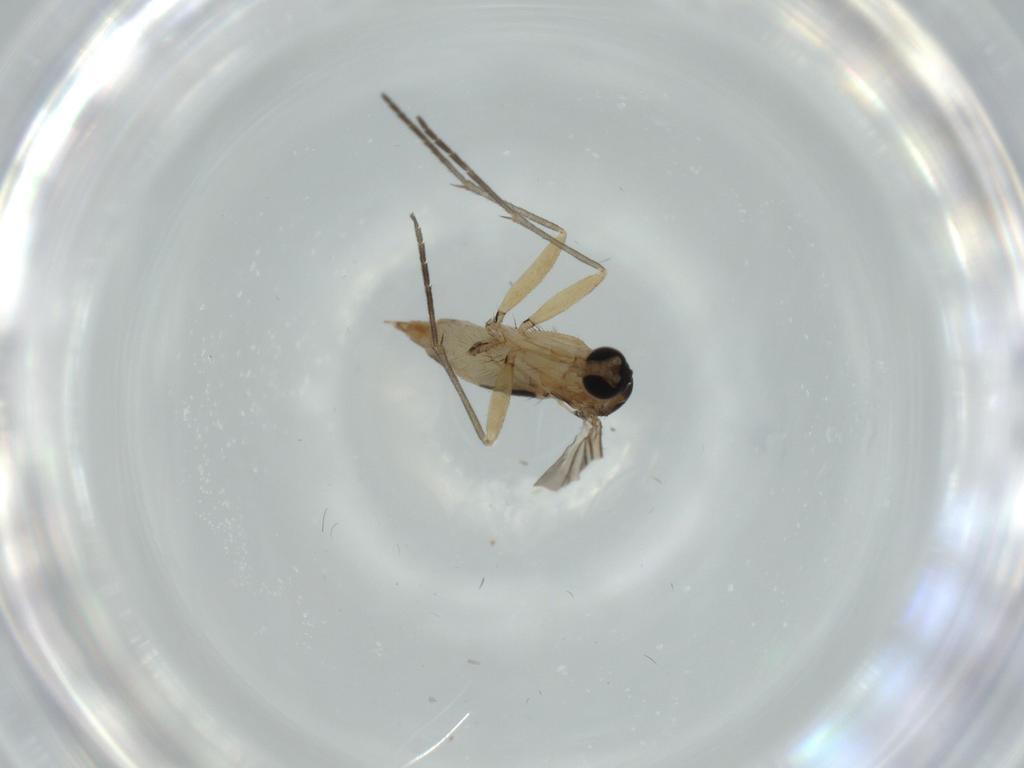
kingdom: Animalia
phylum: Arthropoda
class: Insecta
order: Diptera
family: Sciaridae
